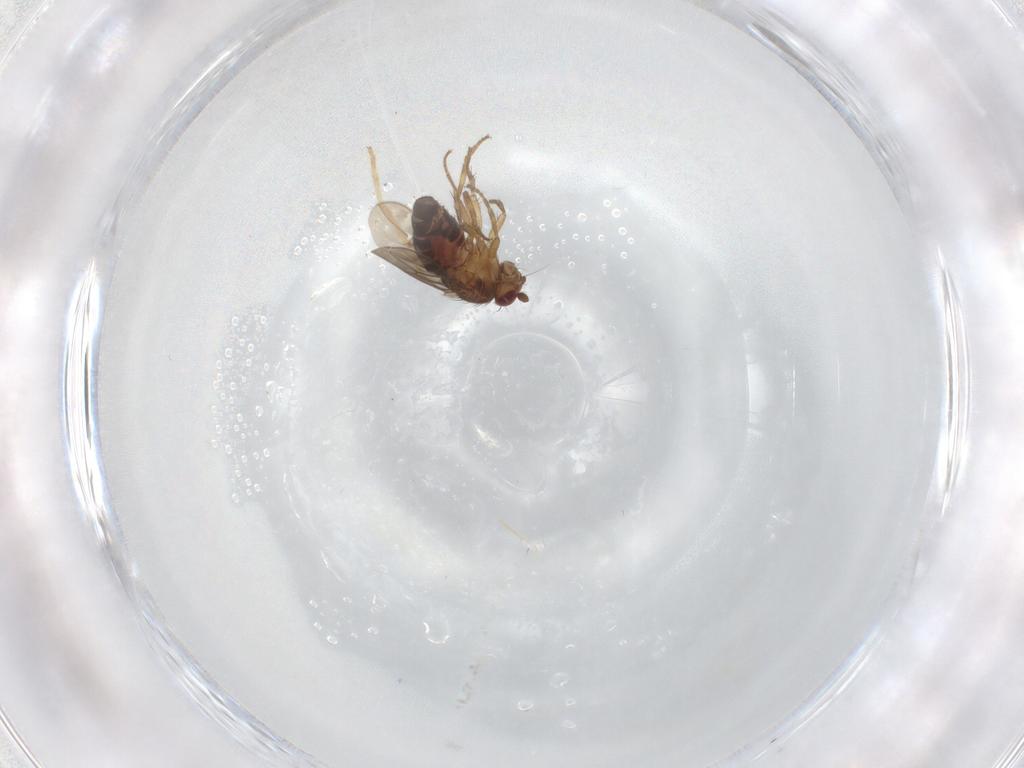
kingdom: Animalia
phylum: Arthropoda
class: Insecta
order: Diptera
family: Sphaeroceridae
